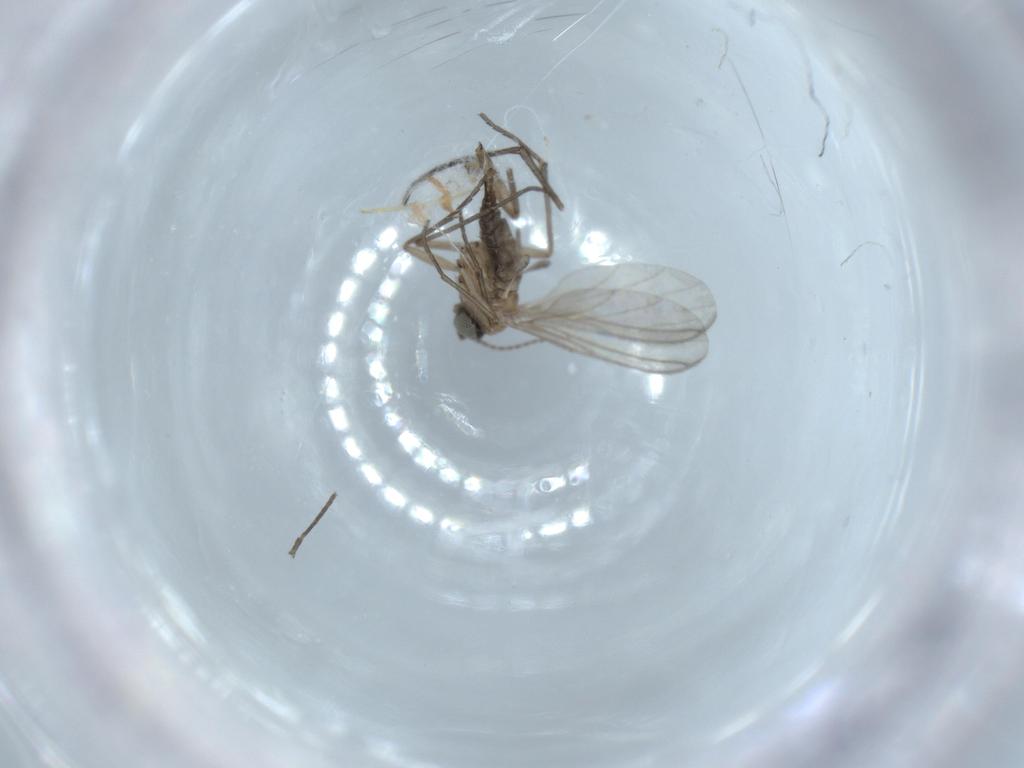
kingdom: Animalia
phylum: Arthropoda
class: Insecta
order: Diptera
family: Sciaridae
